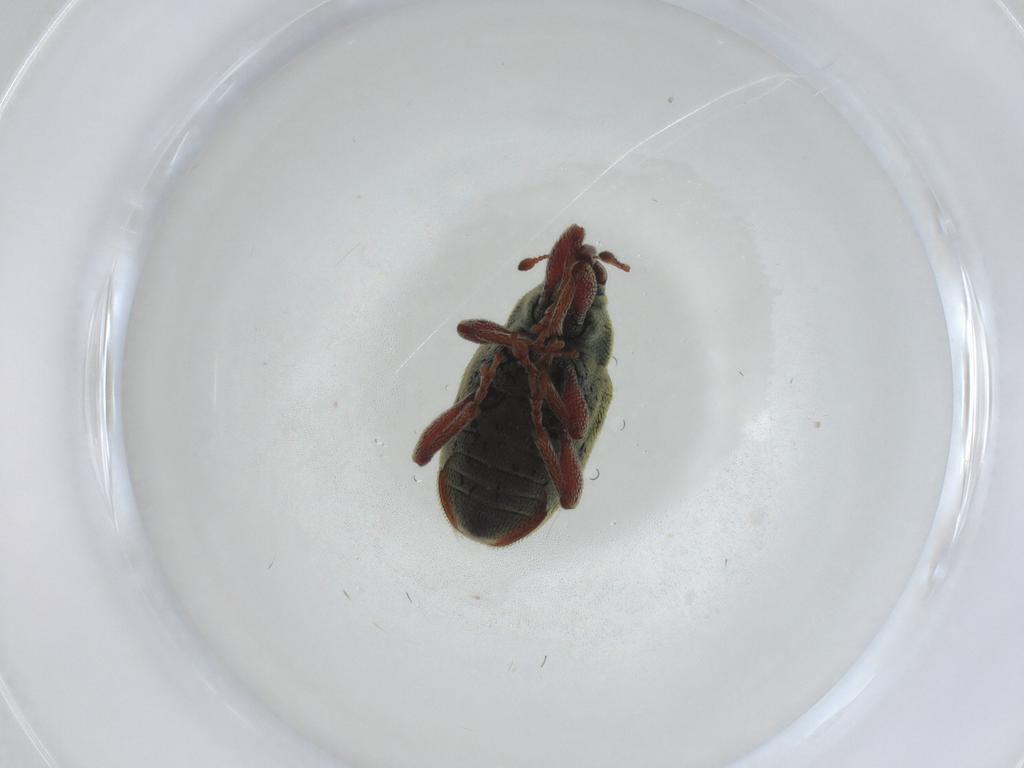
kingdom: Animalia
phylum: Arthropoda
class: Insecta
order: Coleoptera
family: Curculionidae
